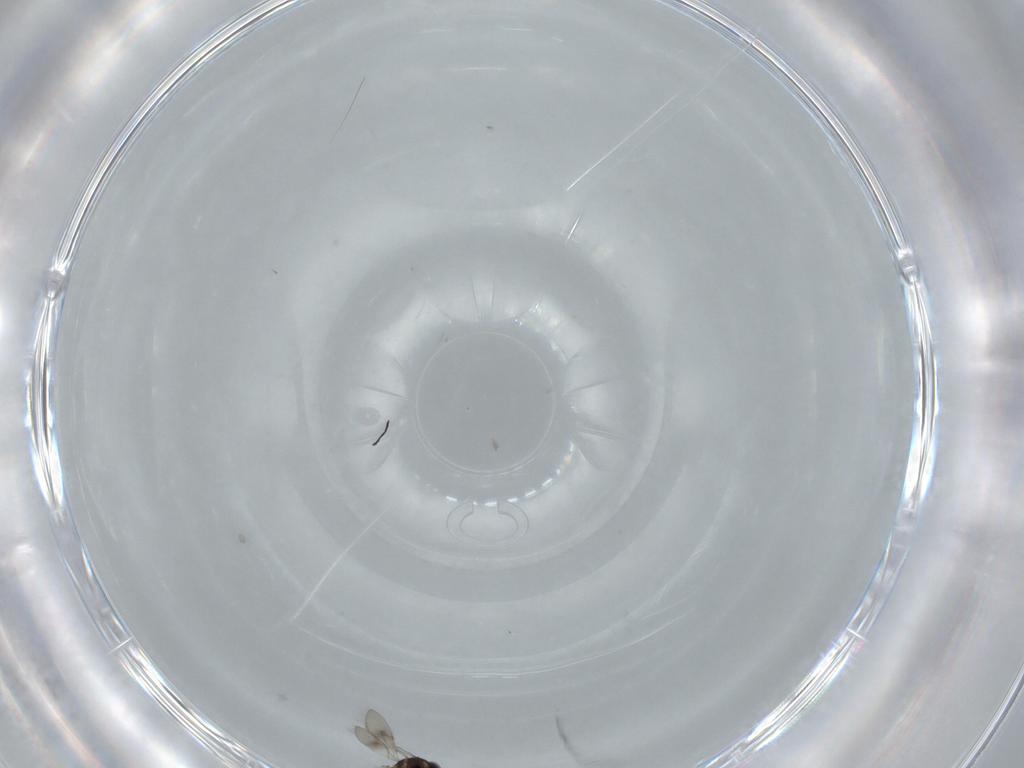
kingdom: Animalia
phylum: Arthropoda
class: Insecta
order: Hymenoptera
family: Scelionidae
